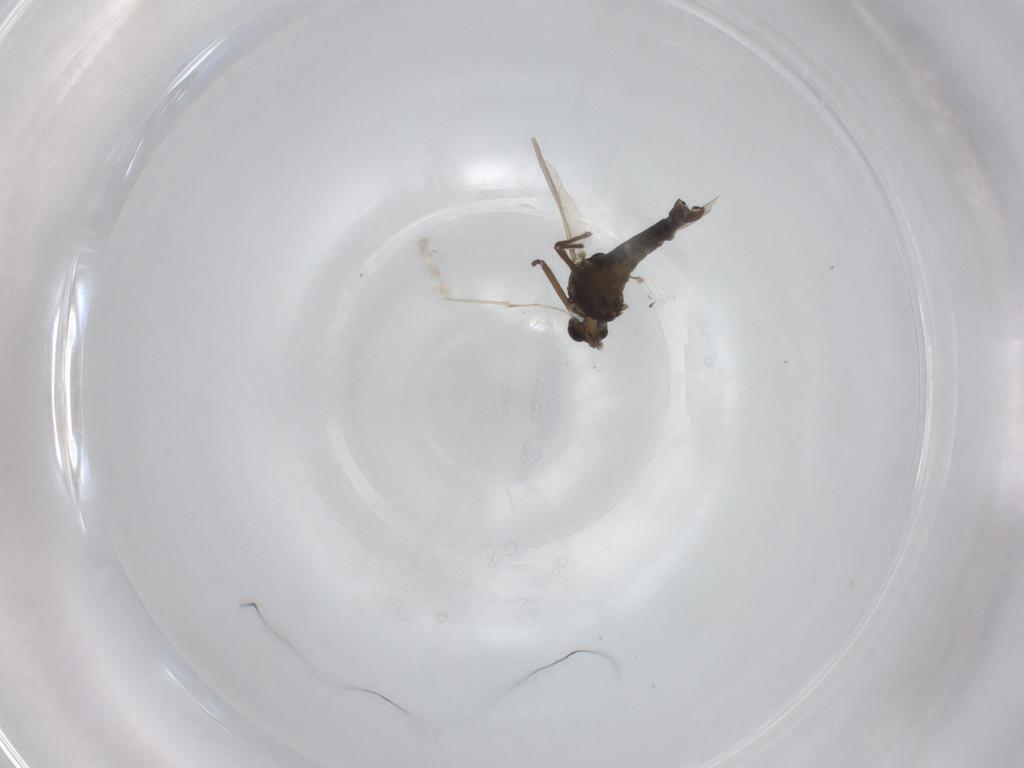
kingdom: Animalia
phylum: Arthropoda
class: Insecta
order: Diptera
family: Chironomidae
